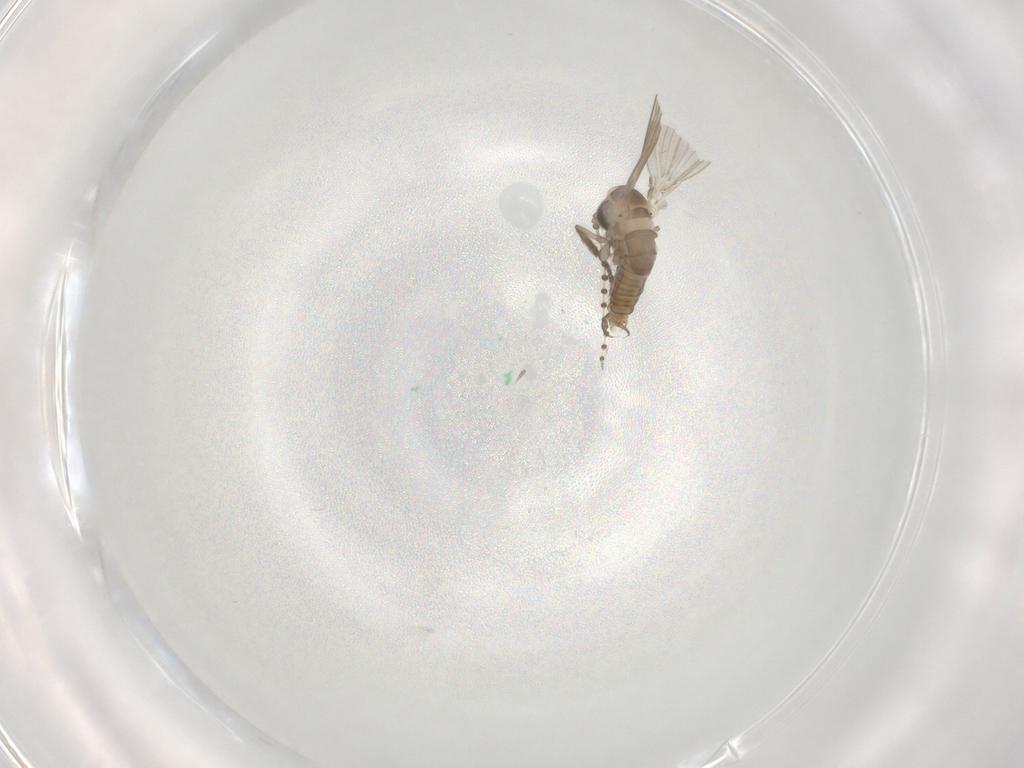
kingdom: Animalia
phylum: Arthropoda
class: Insecta
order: Diptera
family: Psychodidae
